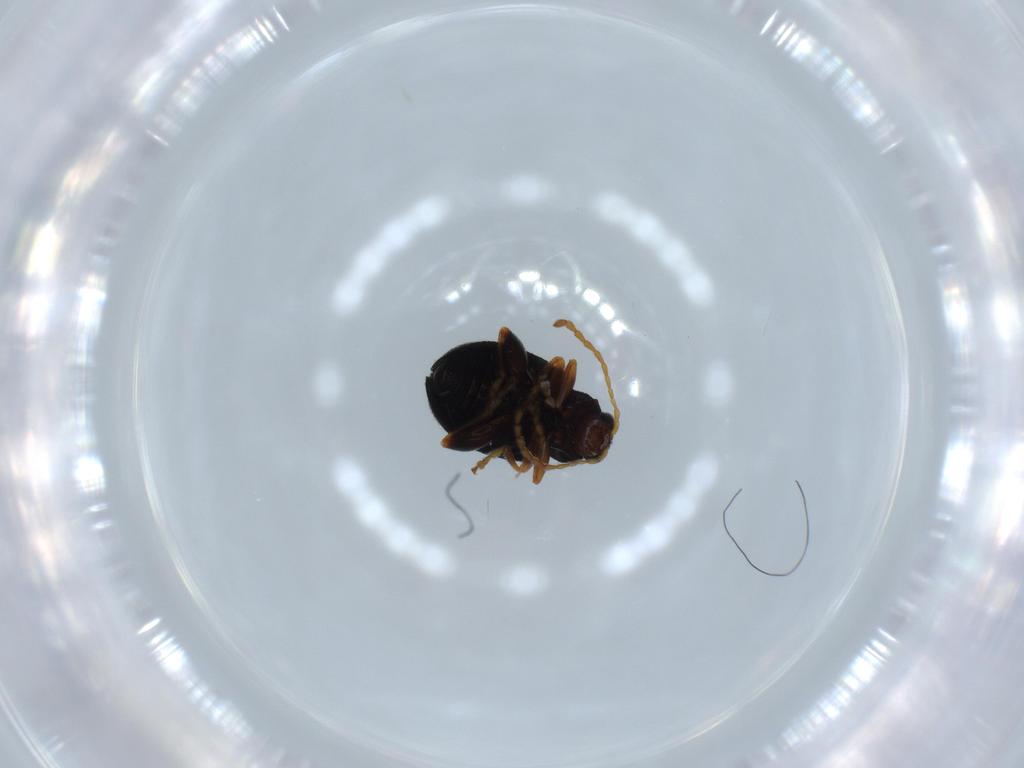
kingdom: Animalia
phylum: Arthropoda
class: Insecta
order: Coleoptera
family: Chrysomelidae
